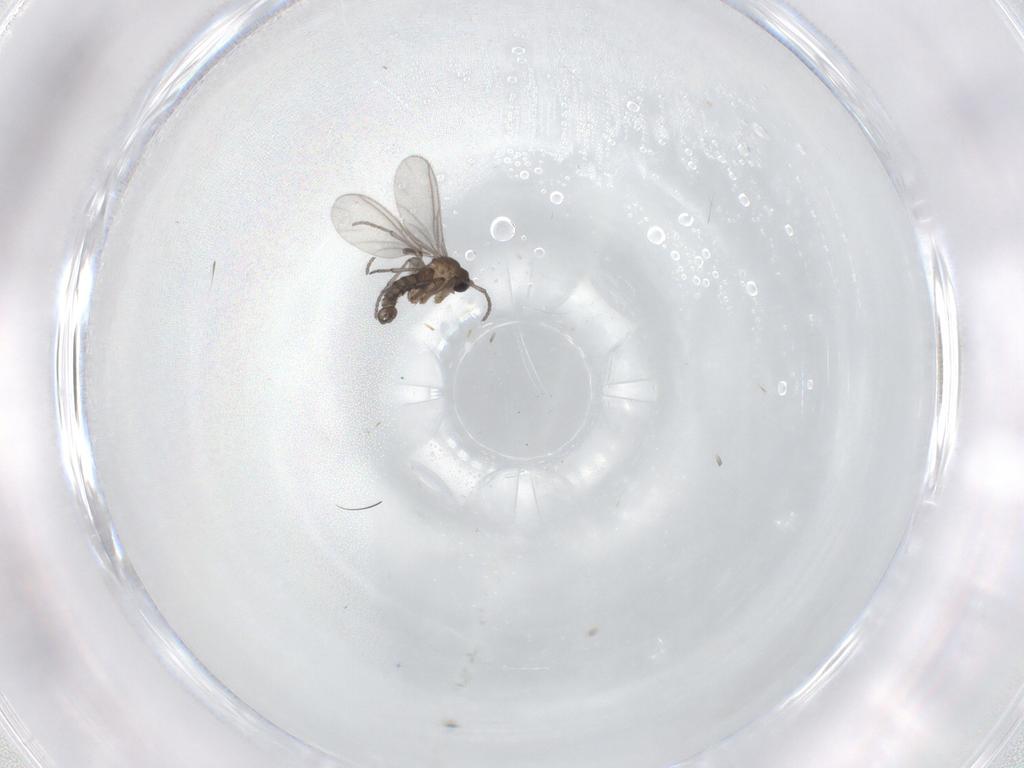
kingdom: Animalia
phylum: Arthropoda
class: Insecta
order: Diptera
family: Sciaridae
